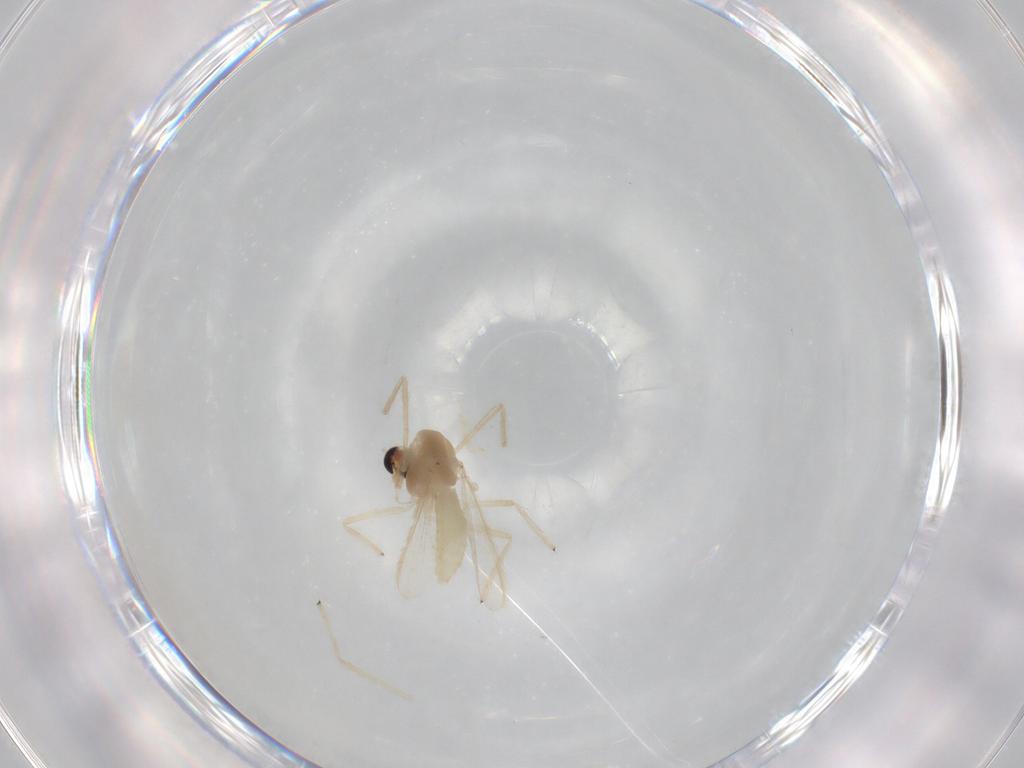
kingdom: Animalia
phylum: Arthropoda
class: Insecta
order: Diptera
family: Chironomidae
